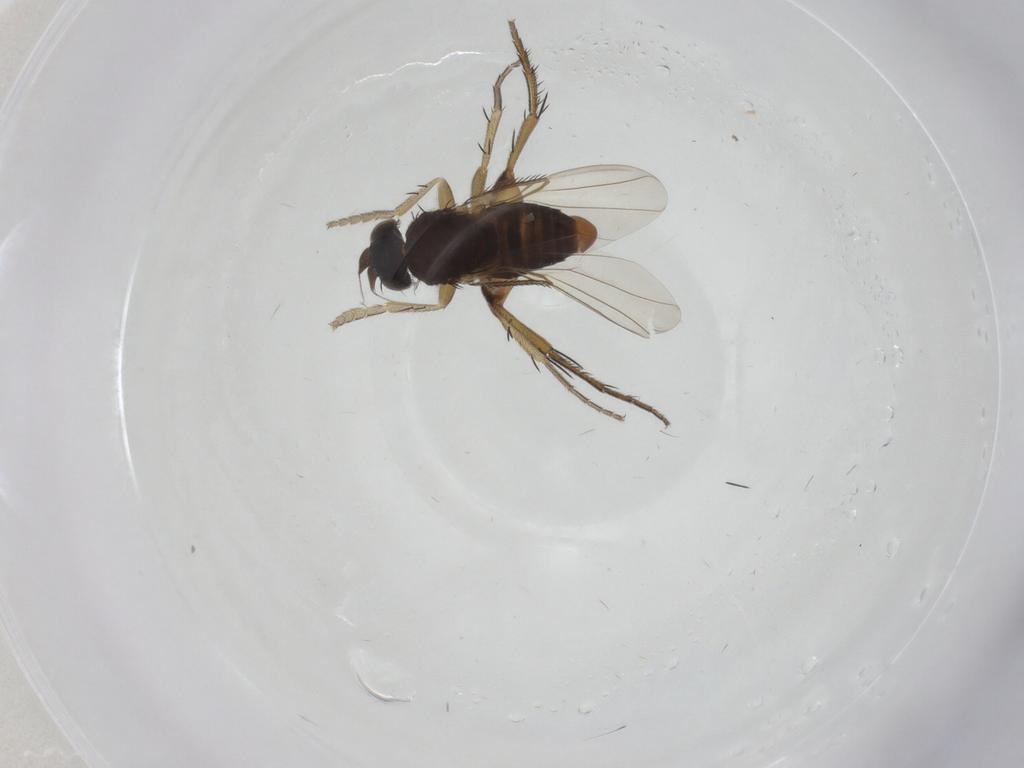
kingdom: Animalia
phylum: Arthropoda
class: Insecta
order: Diptera
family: Phoridae
